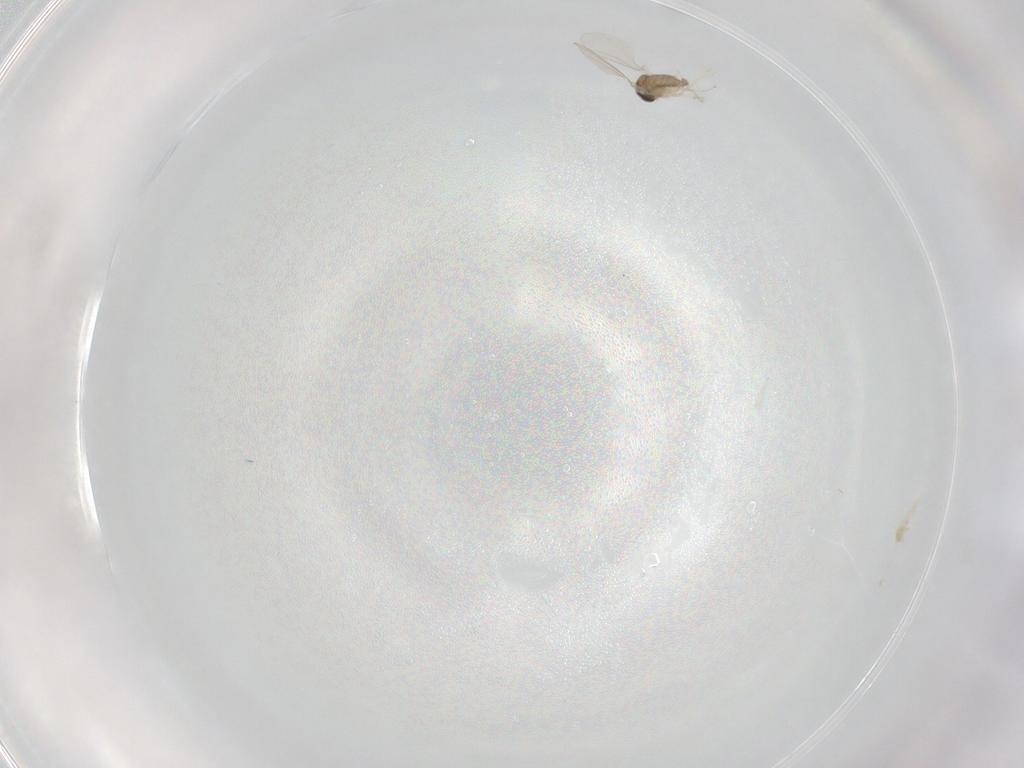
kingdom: Animalia
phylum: Arthropoda
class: Insecta
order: Diptera
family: Cecidomyiidae
